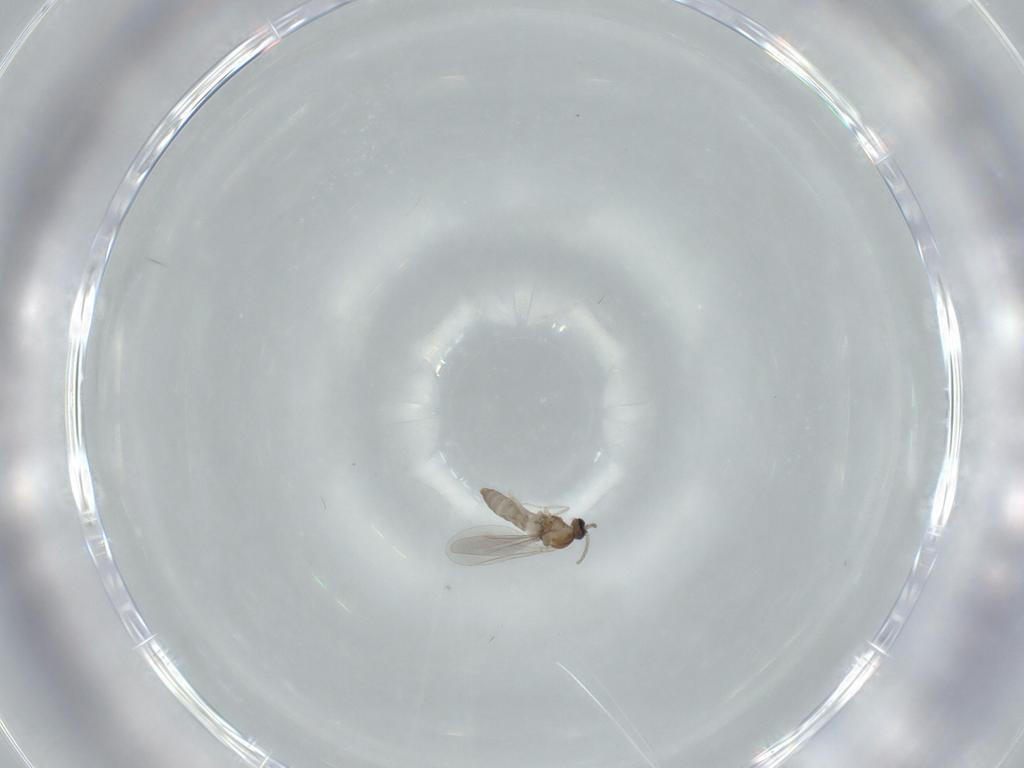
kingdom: Animalia
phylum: Arthropoda
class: Insecta
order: Diptera
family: Cecidomyiidae
